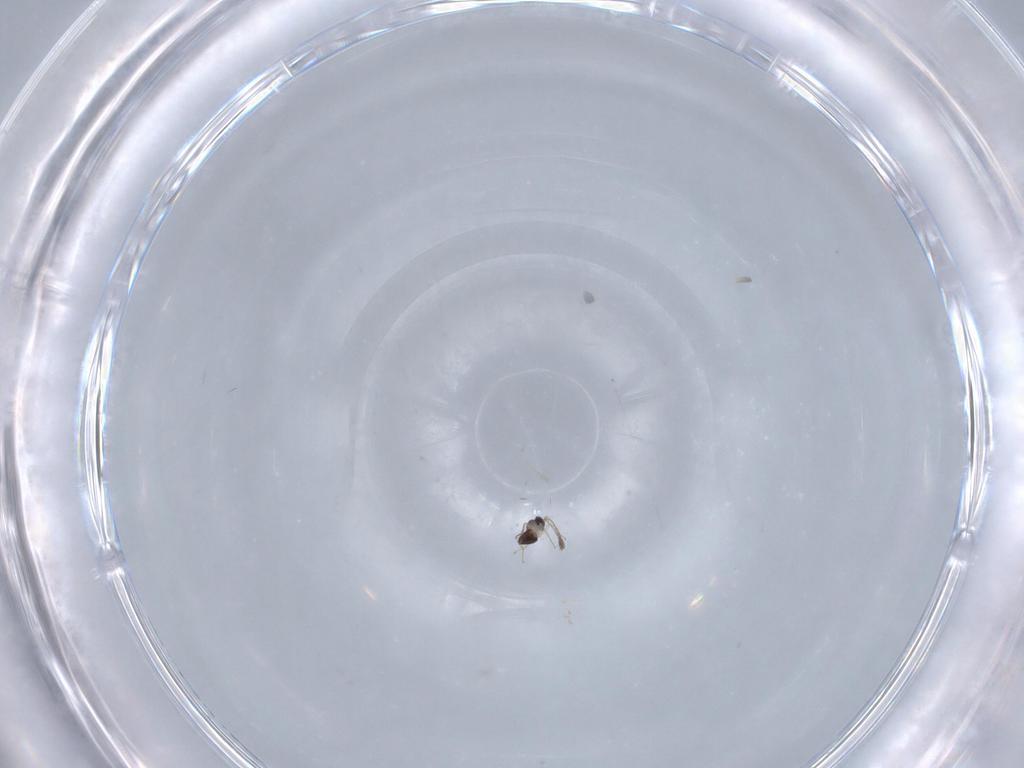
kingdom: Animalia
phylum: Arthropoda
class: Insecta
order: Hymenoptera
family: Mymaridae
